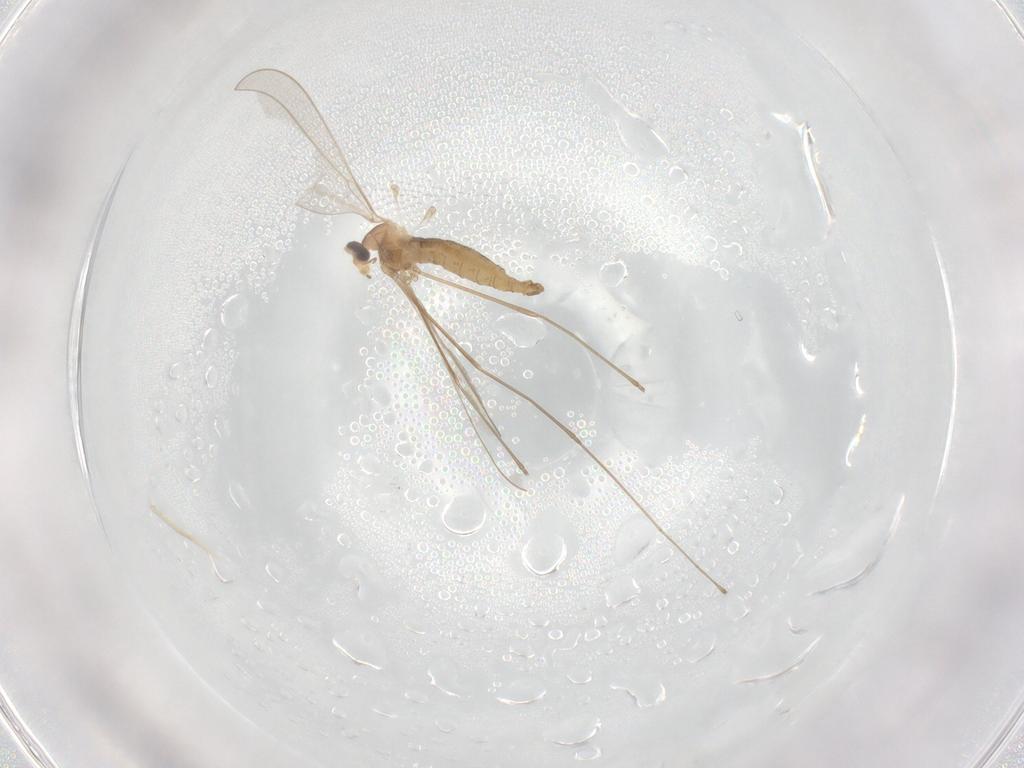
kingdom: Animalia
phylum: Arthropoda
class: Insecta
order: Diptera
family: Cecidomyiidae
